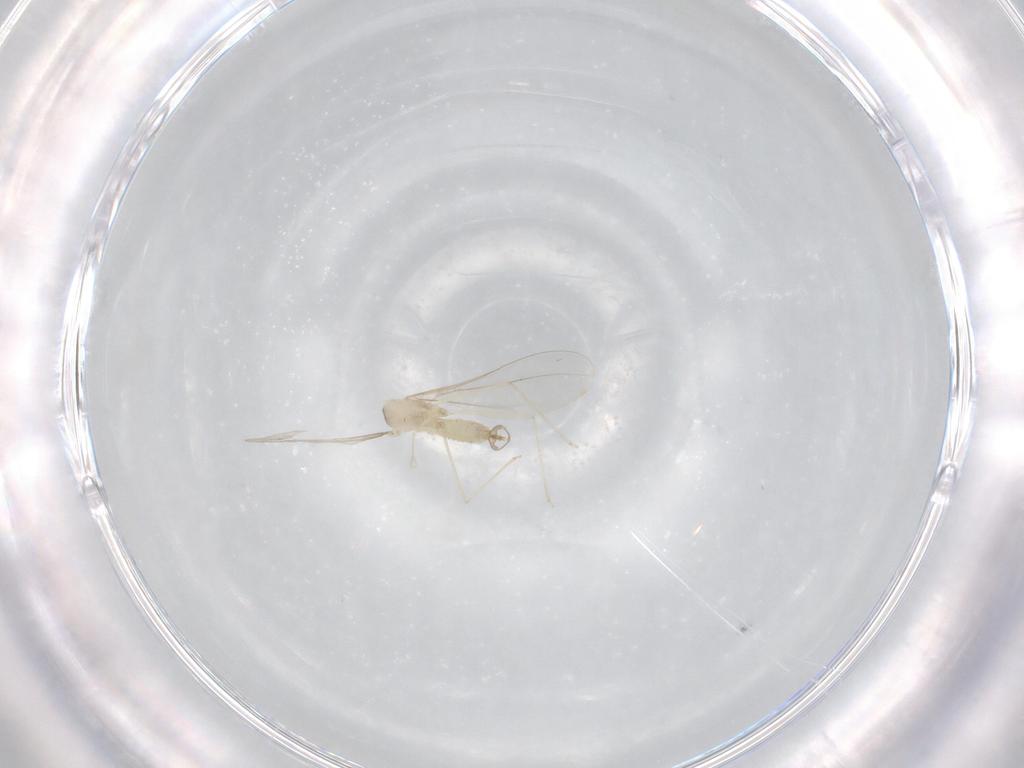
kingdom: Animalia
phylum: Arthropoda
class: Insecta
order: Diptera
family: Cecidomyiidae
